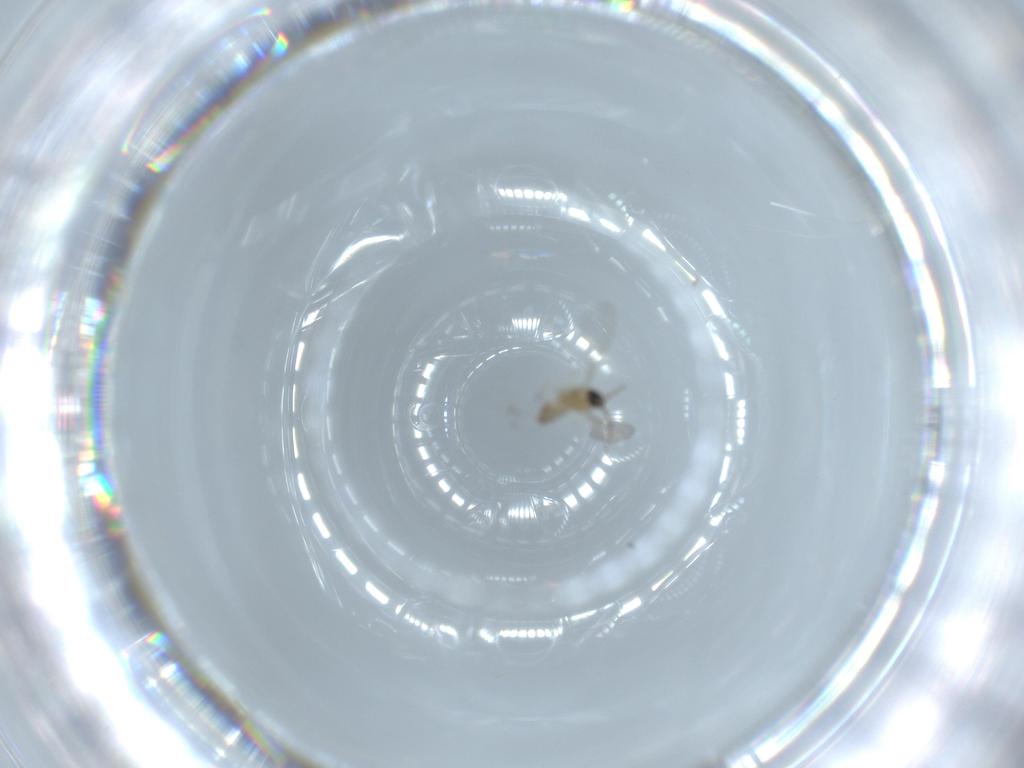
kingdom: Animalia
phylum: Arthropoda
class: Insecta
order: Diptera
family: Cecidomyiidae
